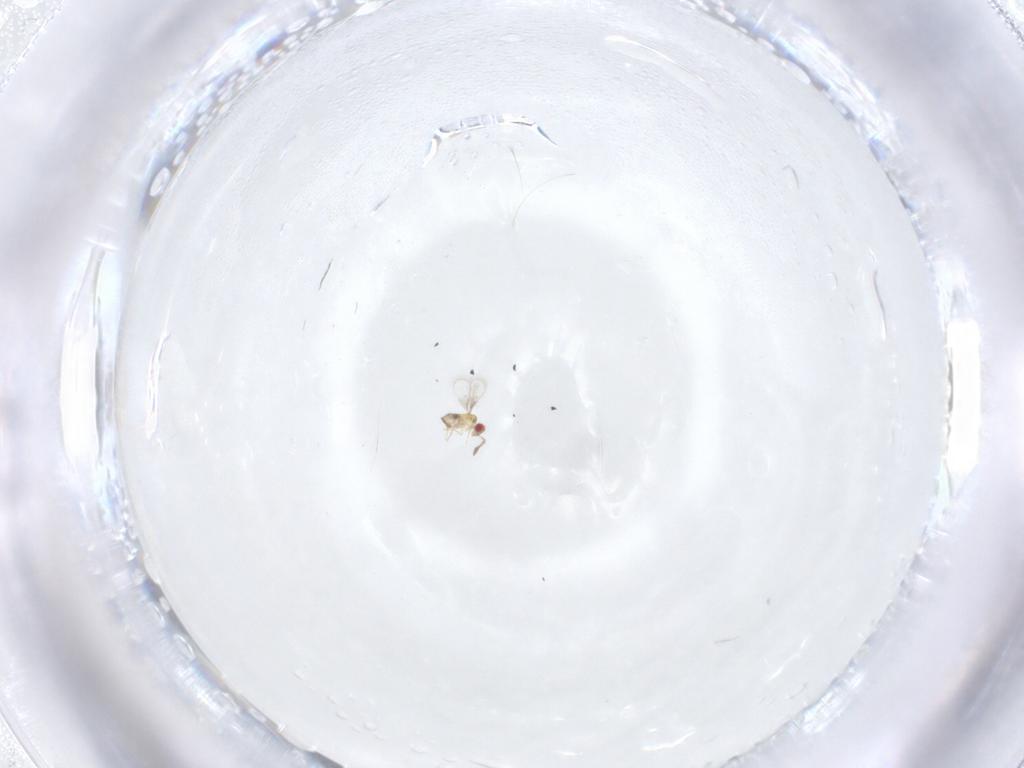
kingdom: Animalia
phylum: Arthropoda
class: Insecta
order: Hymenoptera
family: Trichogrammatidae
